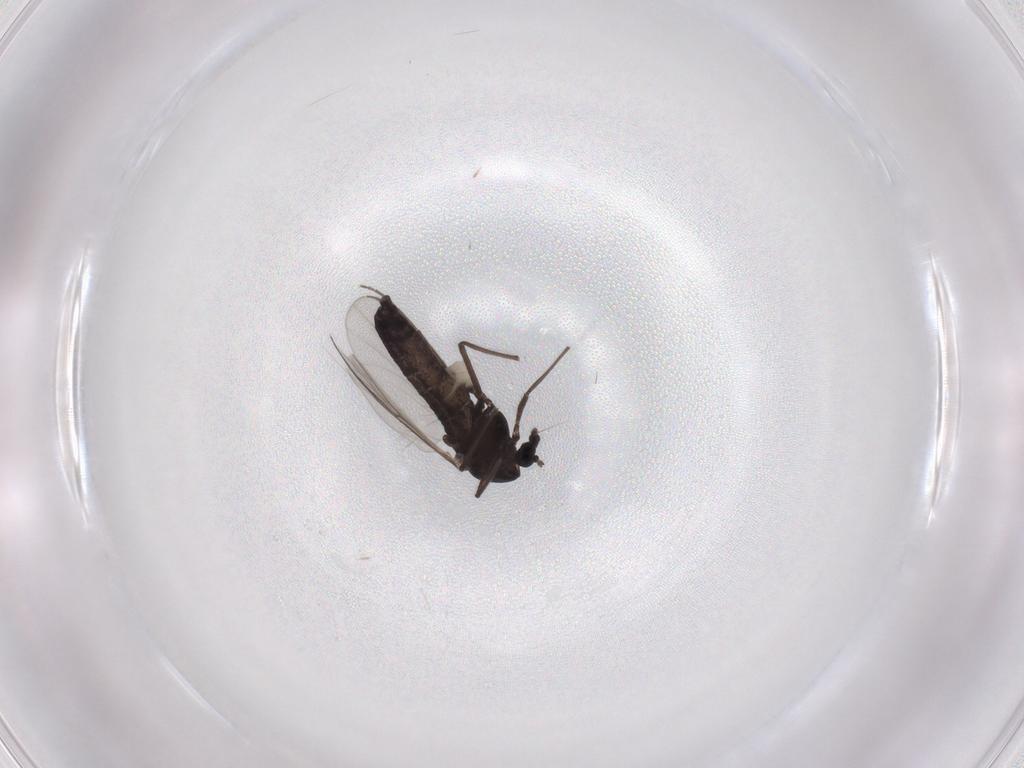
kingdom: Animalia
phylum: Arthropoda
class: Insecta
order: Diptera
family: Chironomidae
